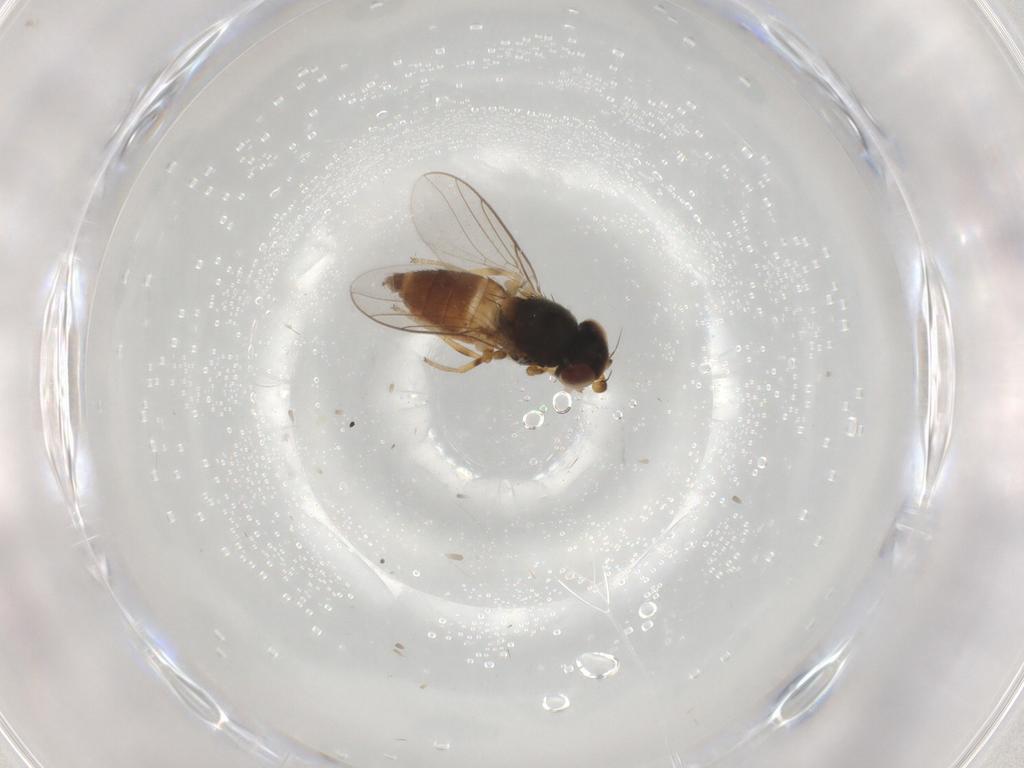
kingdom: Animalia
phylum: Arthropoda
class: Insecta
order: Diptera
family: Chloropidae
